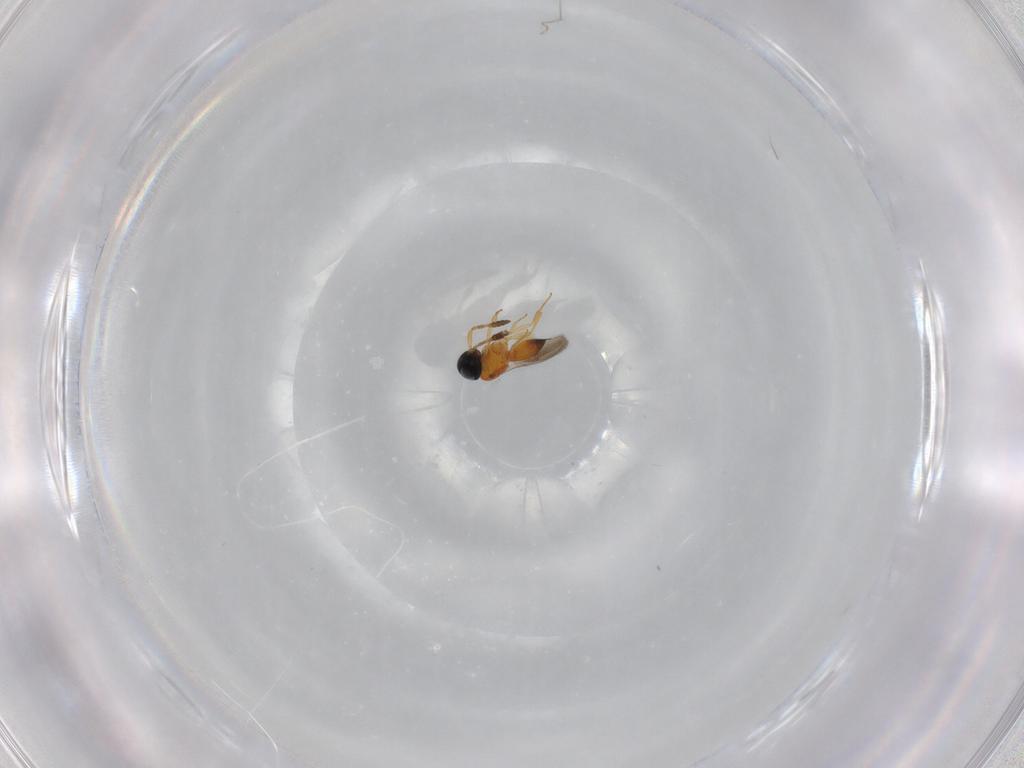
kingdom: Animalia
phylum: Arthropoda
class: Insecta
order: Hymenoptera
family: Scelionidae
